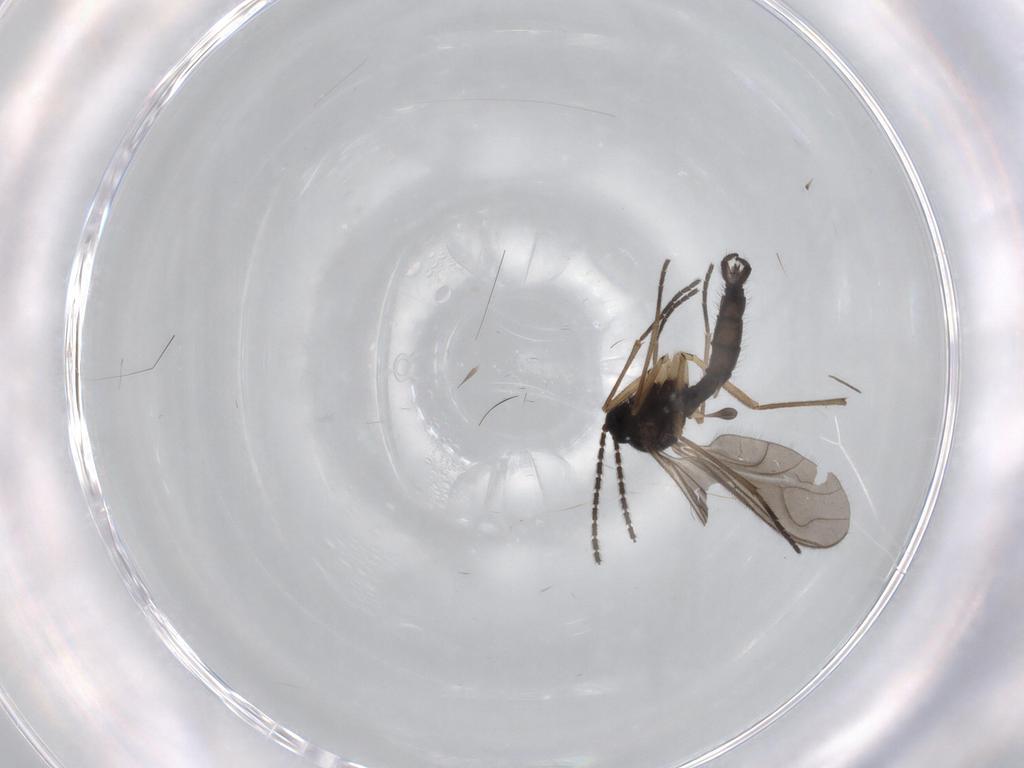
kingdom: Animalia
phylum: Arthropoda
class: Insecta
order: Diptera
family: Sciaridae
